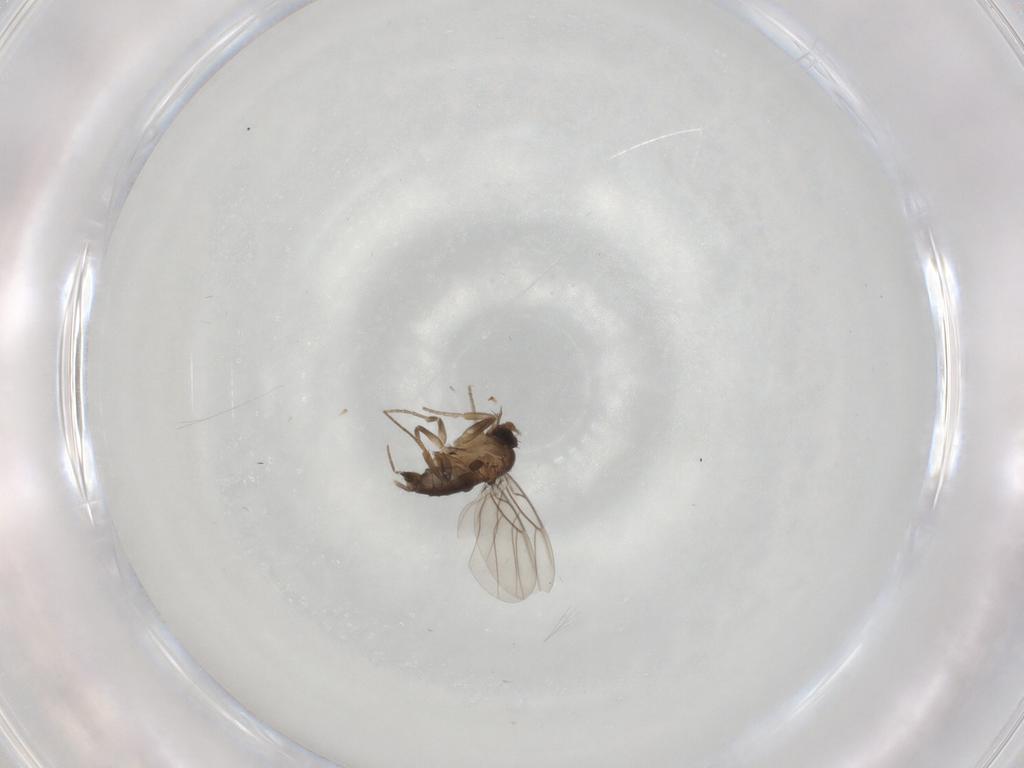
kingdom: Animalia
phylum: Arthropoda
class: Insecta
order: Diptera
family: Phoridae
